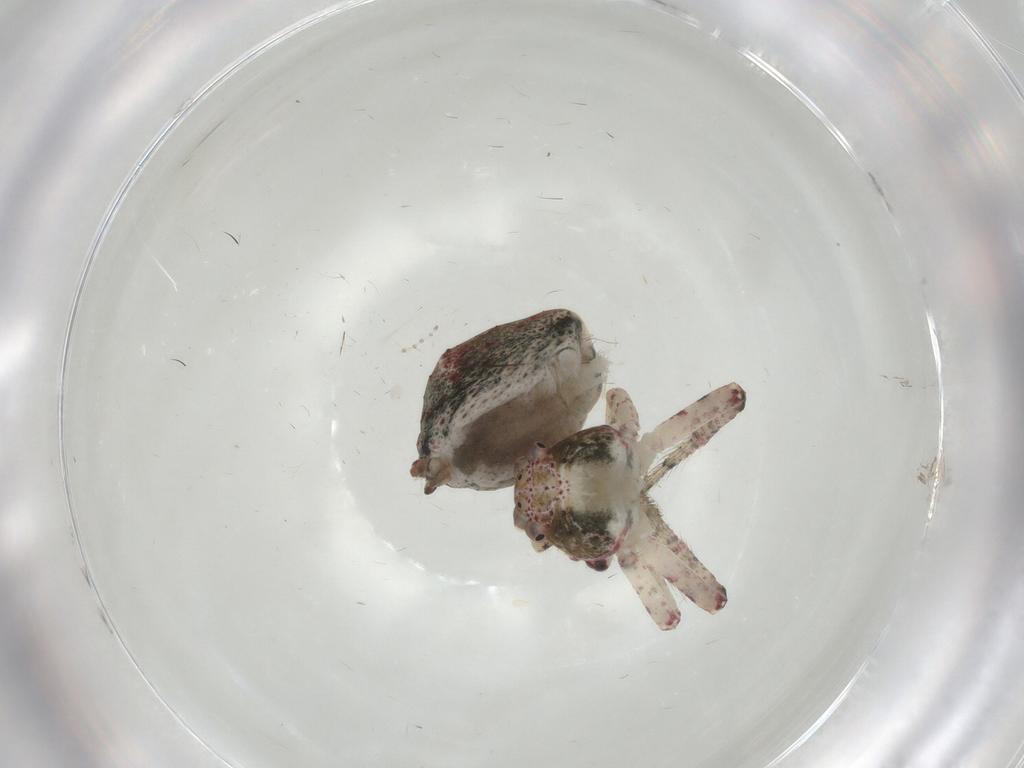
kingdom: Animalia
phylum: Arthropoda
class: Arachnida
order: Araneae
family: Thomisidae
